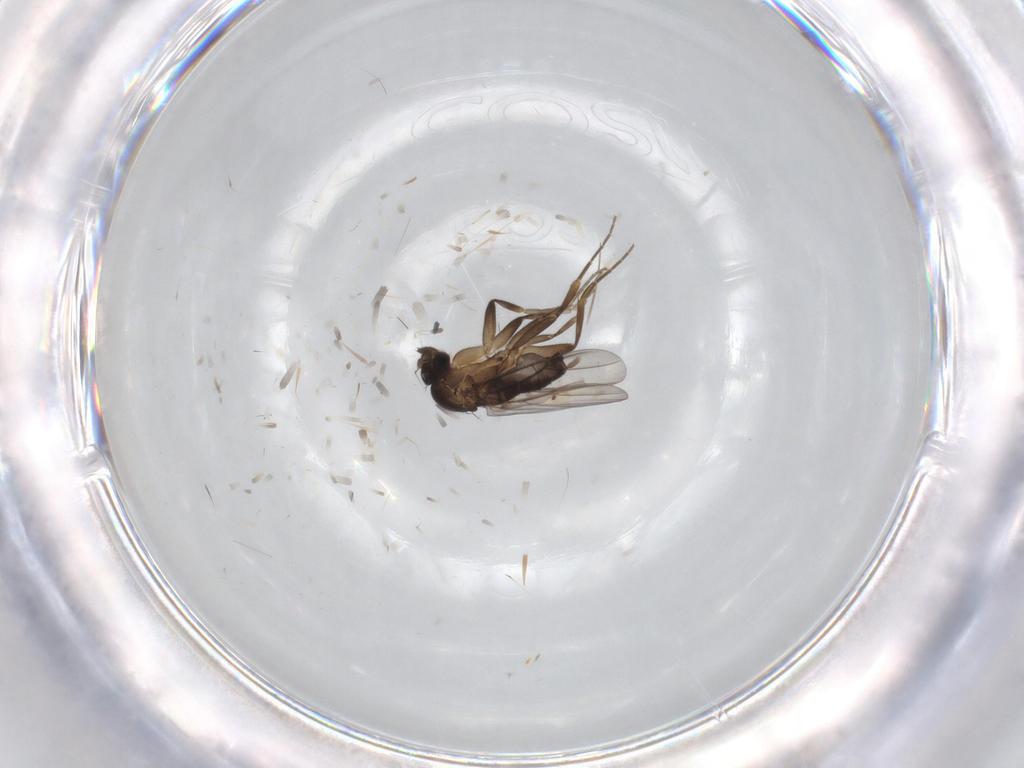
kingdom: Animalia
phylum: Arthropoda
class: Insecta
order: Diptera
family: Phoridae
